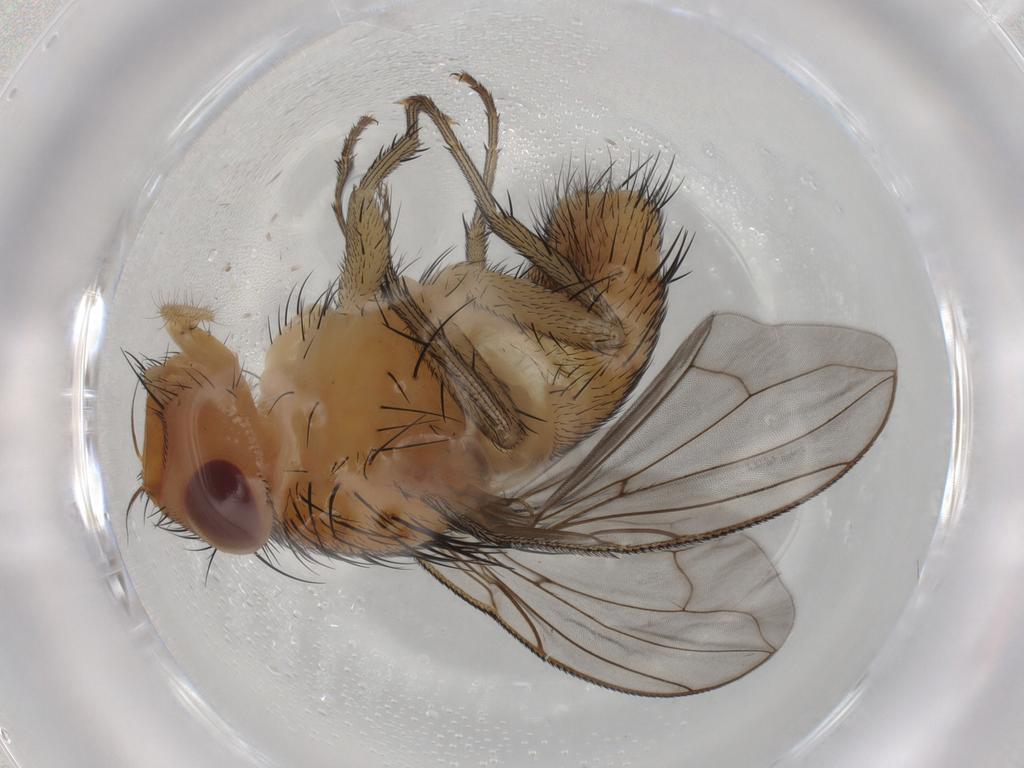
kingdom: Animalia
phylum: Arthropoda
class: Insecta
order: Diptera
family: Calliphoridae
